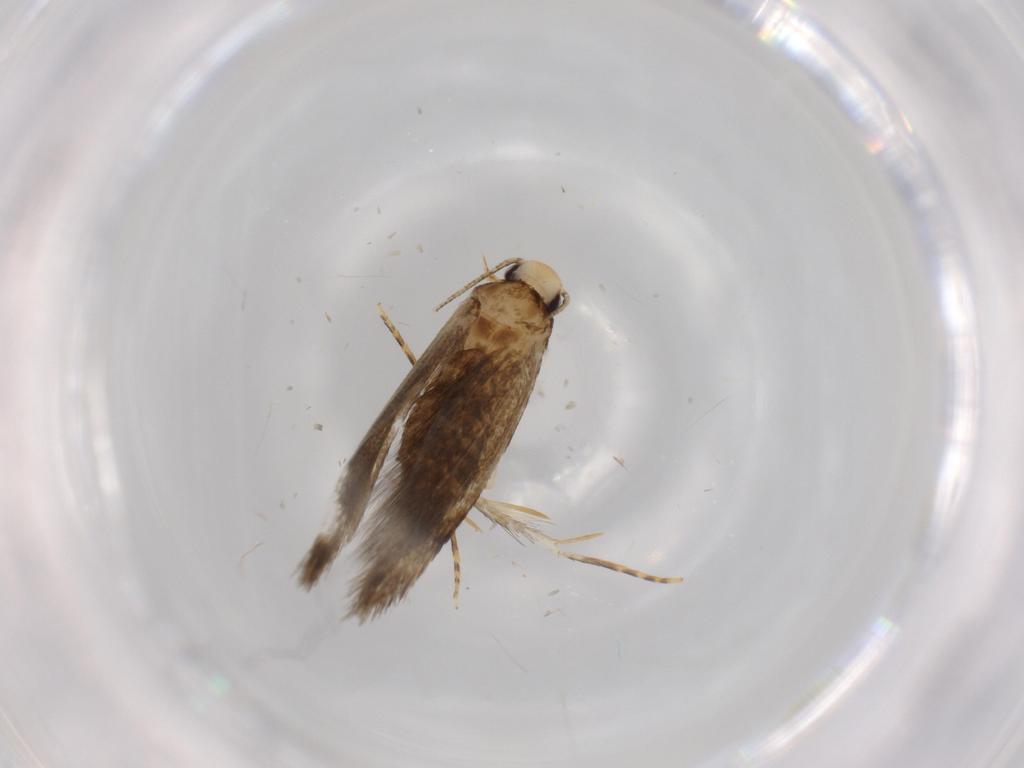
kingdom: Animalia
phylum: Arthropoda
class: Insecta
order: Lepidoptera
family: Tineidae
